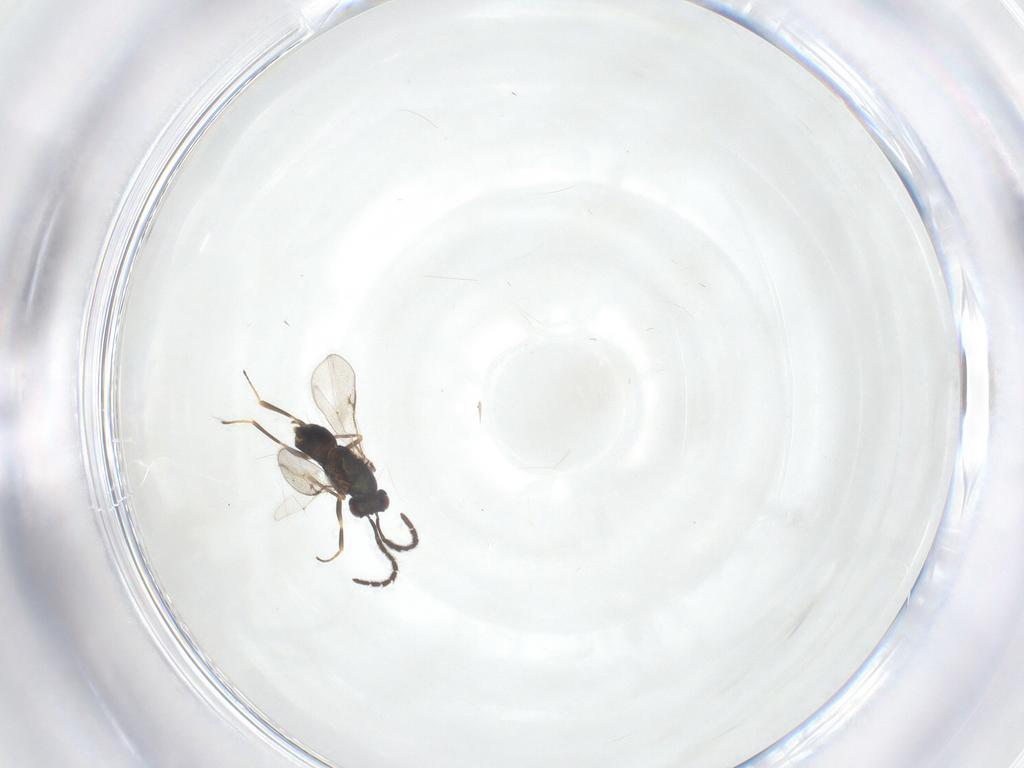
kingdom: Animalia
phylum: Arthropoda
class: Insecta
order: Hymenoptera
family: Encyrtidae
